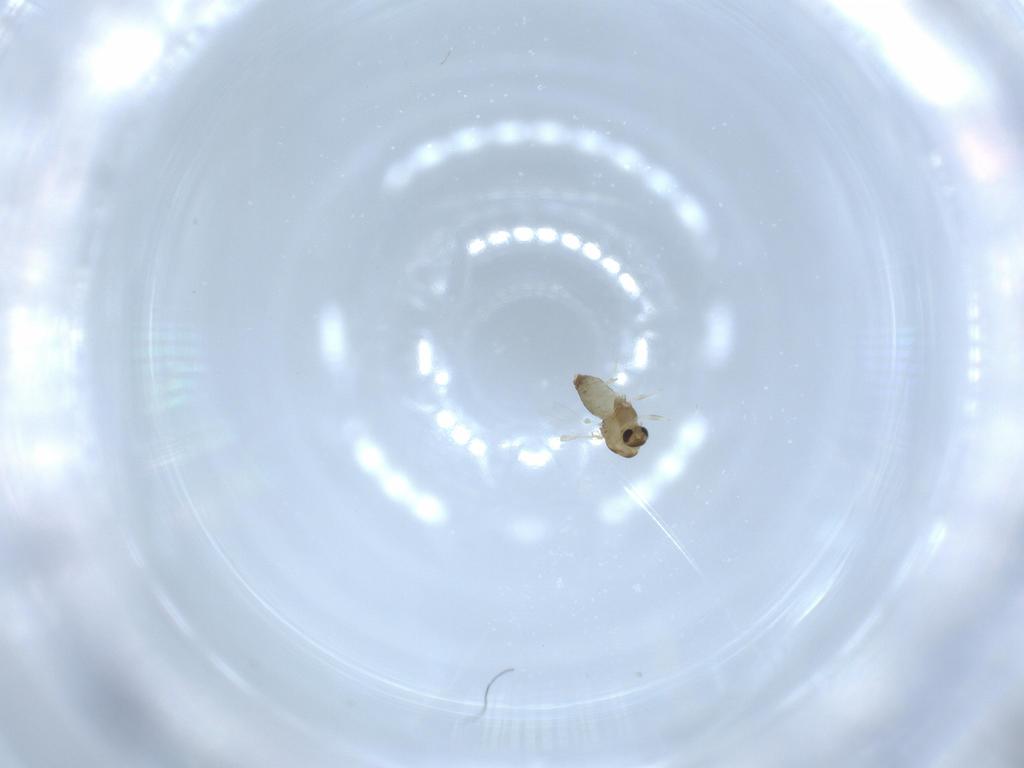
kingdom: Animalia
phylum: Arthropoda
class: Insecta
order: Diptera
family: Chironomidae
